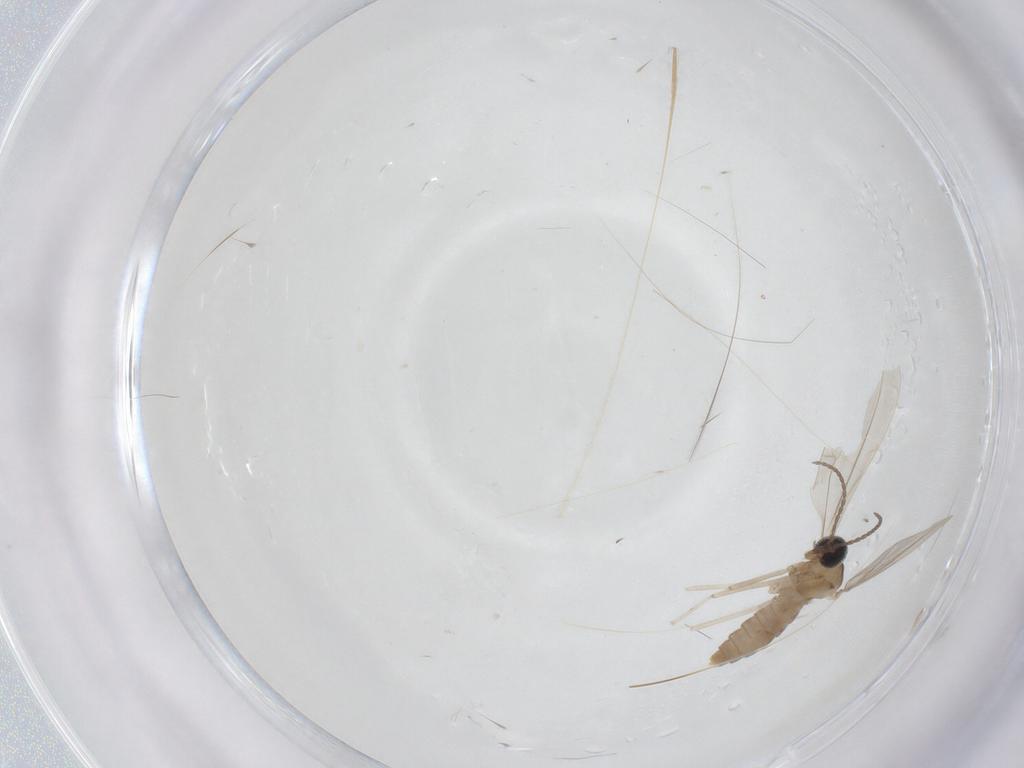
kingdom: Animalia
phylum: Arthropoda
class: Insecta
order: Diptera
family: Cecidomyiidae
